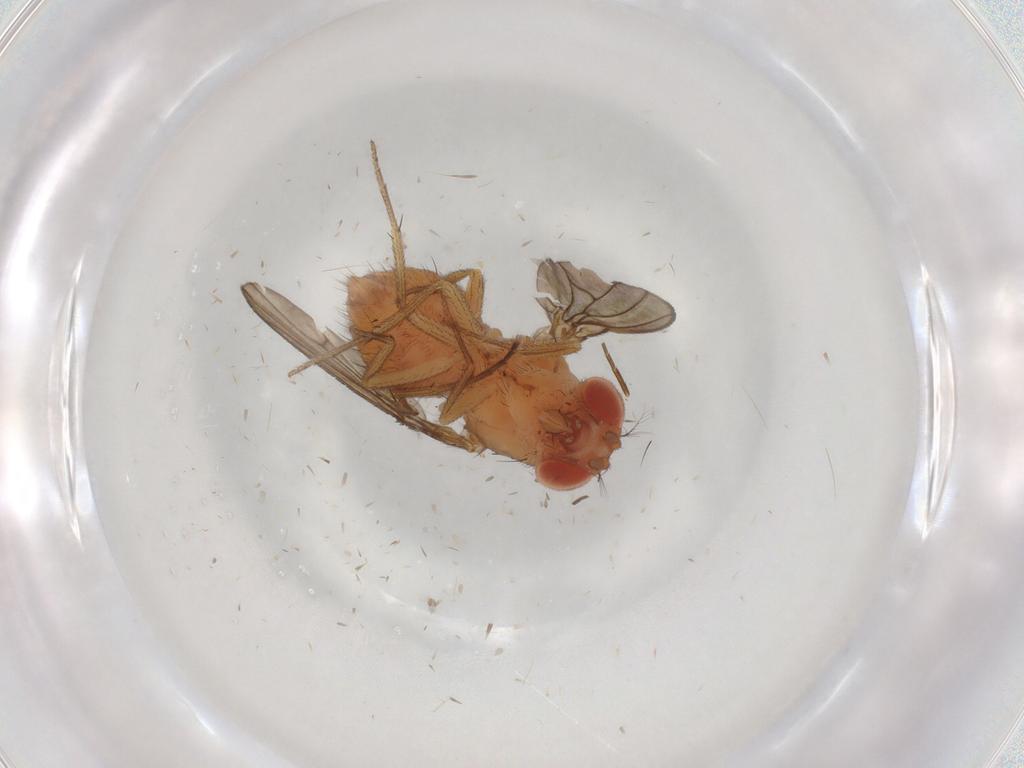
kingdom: Animalia
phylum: Arthropoda
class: Insecta
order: Diptera
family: Drosophilidae
